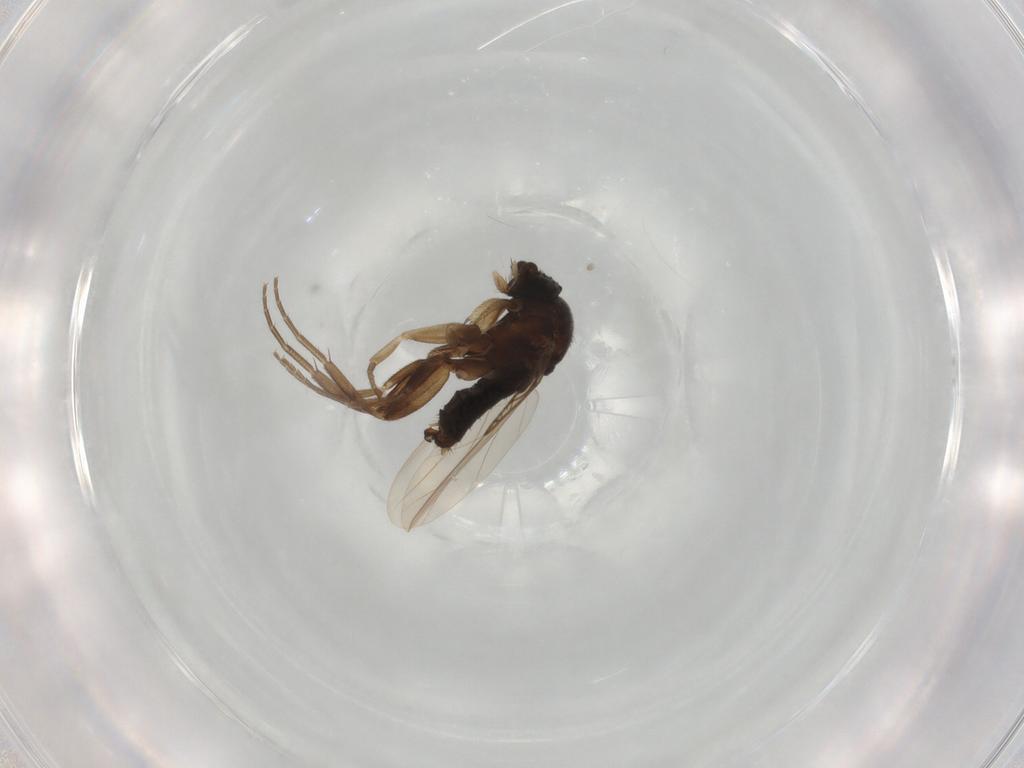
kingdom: Animalia
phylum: Arthropoda
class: Insecta
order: Diptera
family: Phoridae
